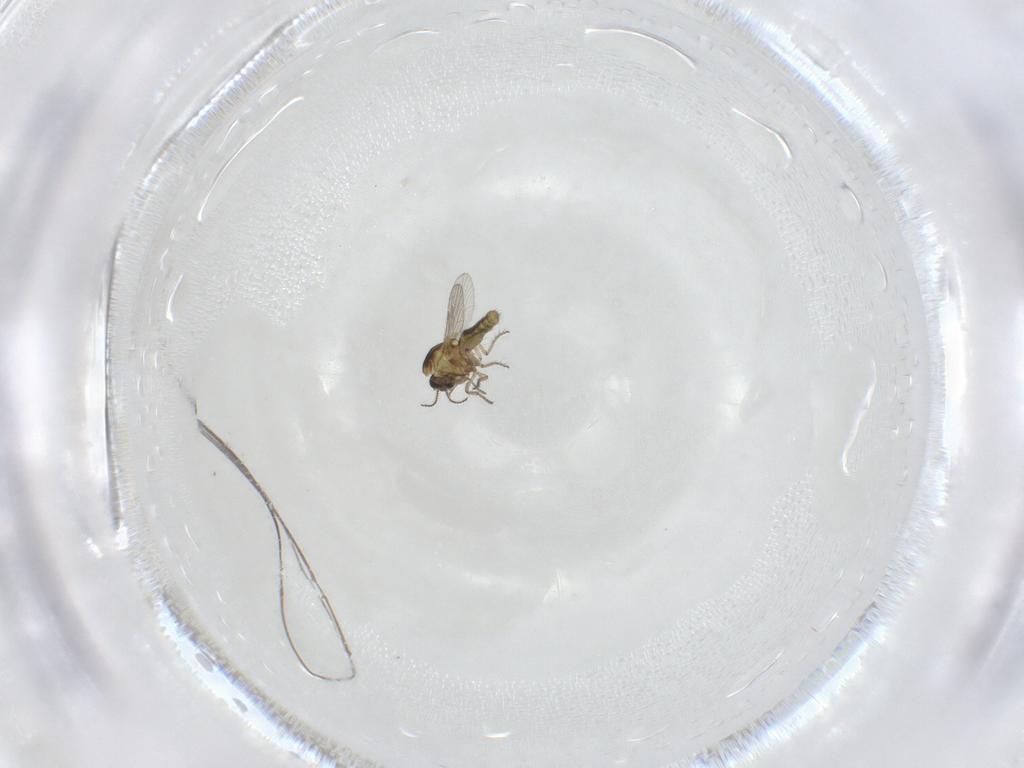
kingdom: Animalia
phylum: Arthropoda
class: Insecta
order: Diptera
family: Ceratopogonidae
